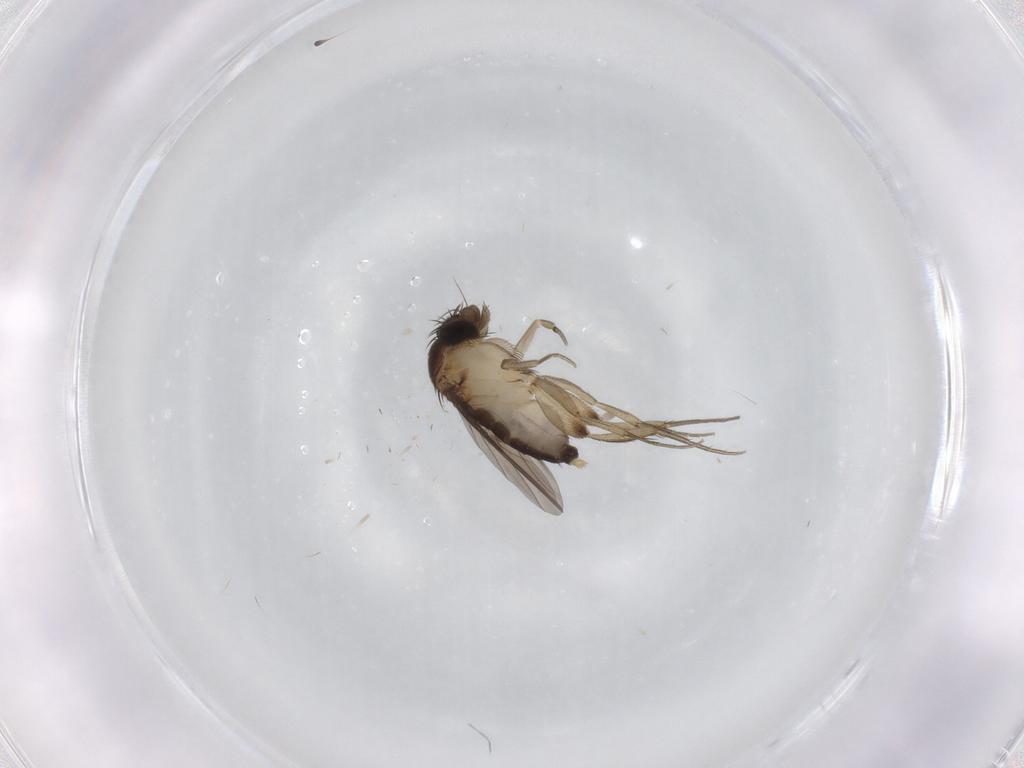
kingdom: Animalia
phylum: Arthropoda
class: Insecta
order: Diptera
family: Phoridae
